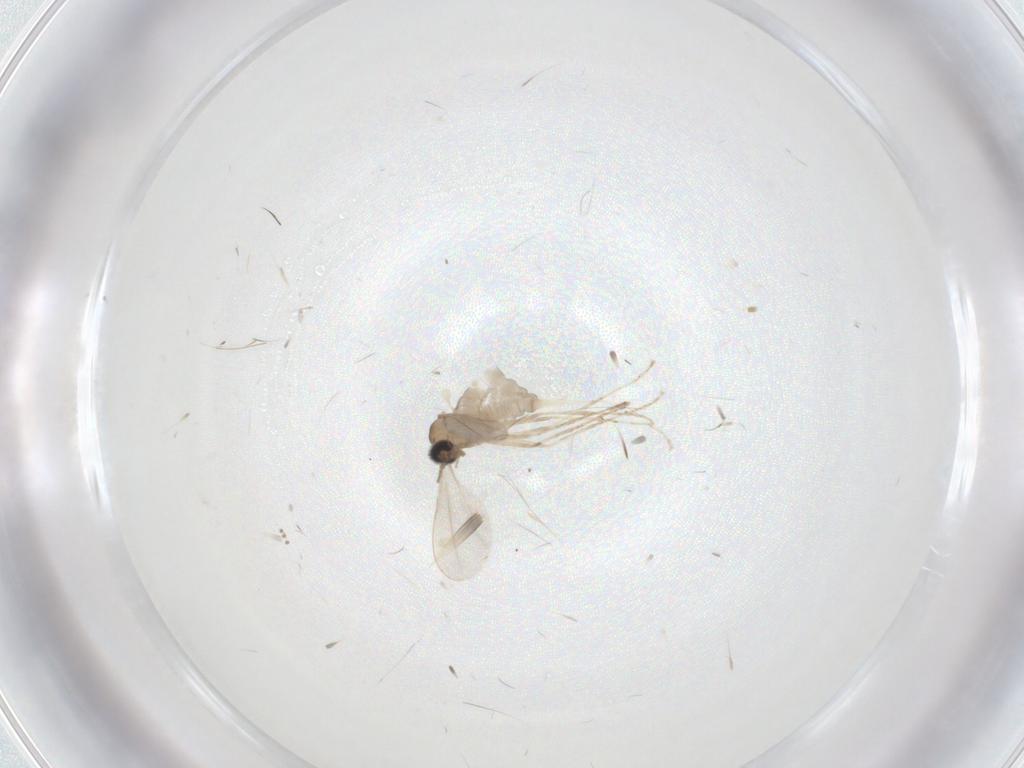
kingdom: Animalia
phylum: Arthropoda
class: Insecta
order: Diptera
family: Cecidomyiidae
